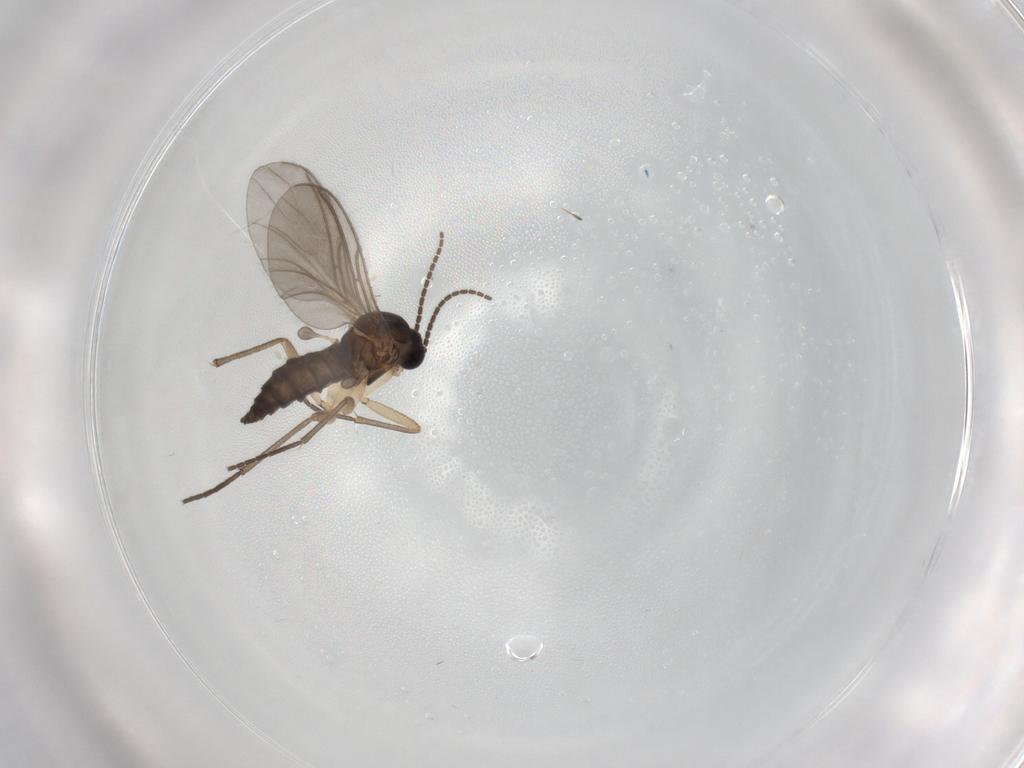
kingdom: Animalia
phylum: Arthropoda
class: Insecta
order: Diptera
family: Sciaridae
